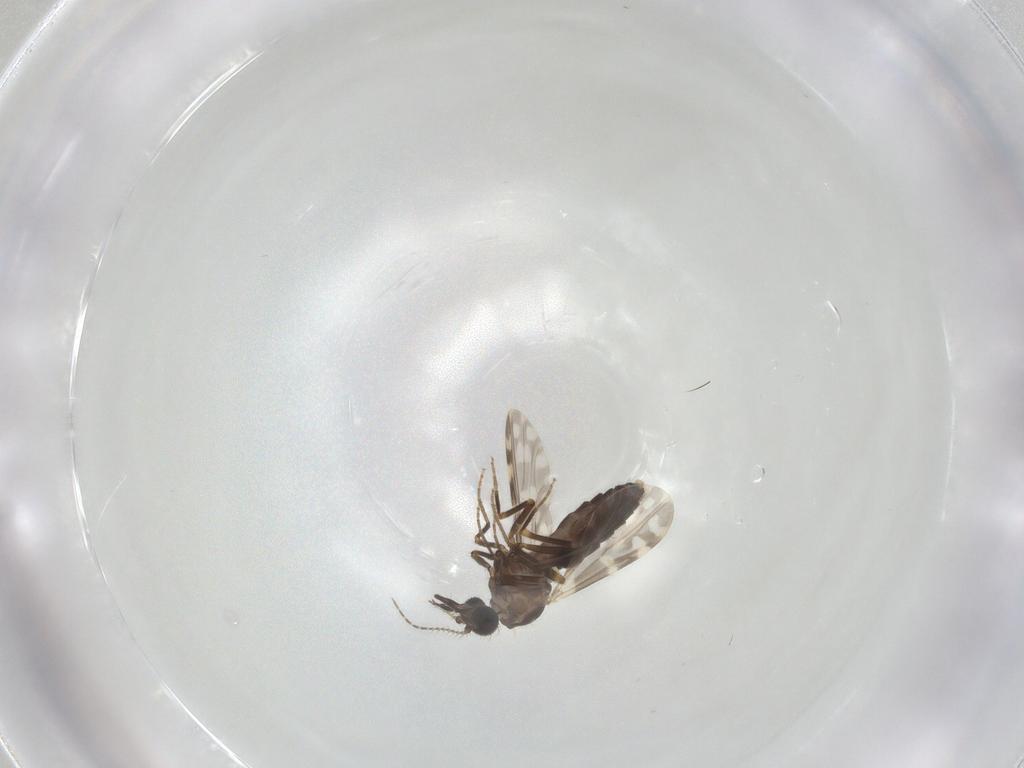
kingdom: Animalia
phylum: Arthropoda
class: Insecta
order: Diptera
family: Ceratopogonidae
